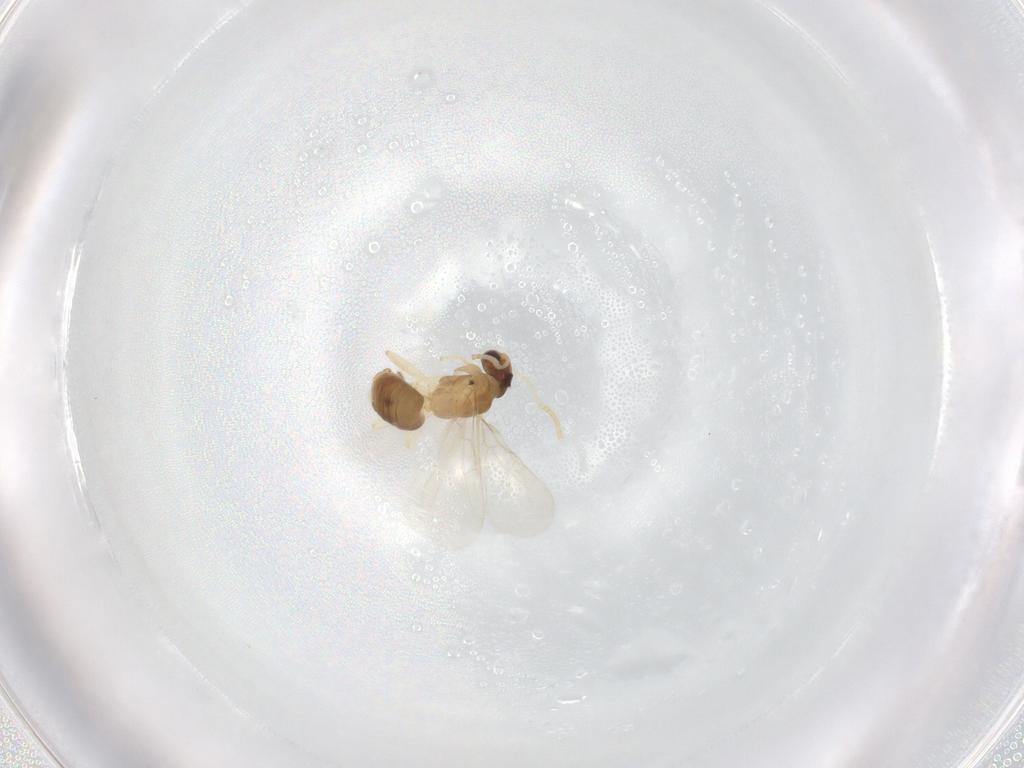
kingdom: Animalia
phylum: Arthropoda
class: Insecta
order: Hymenoptera
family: Formicidae
